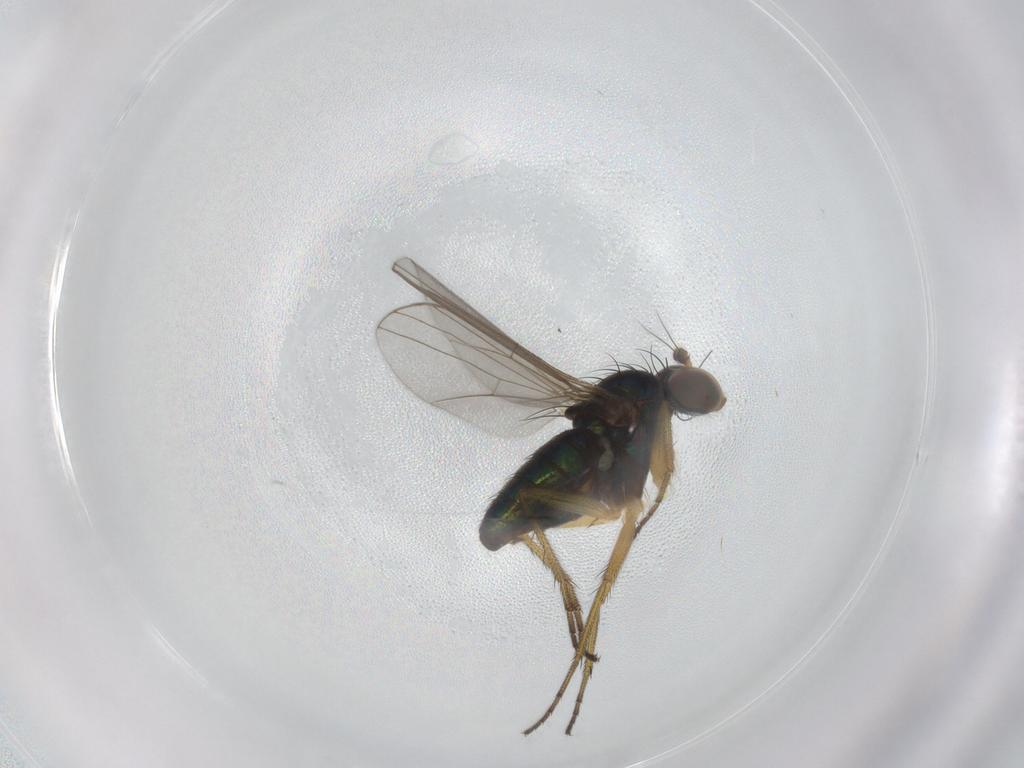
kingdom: Animalia
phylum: Arthropoda
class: Insecta
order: Diptera
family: Dolichopodidae
